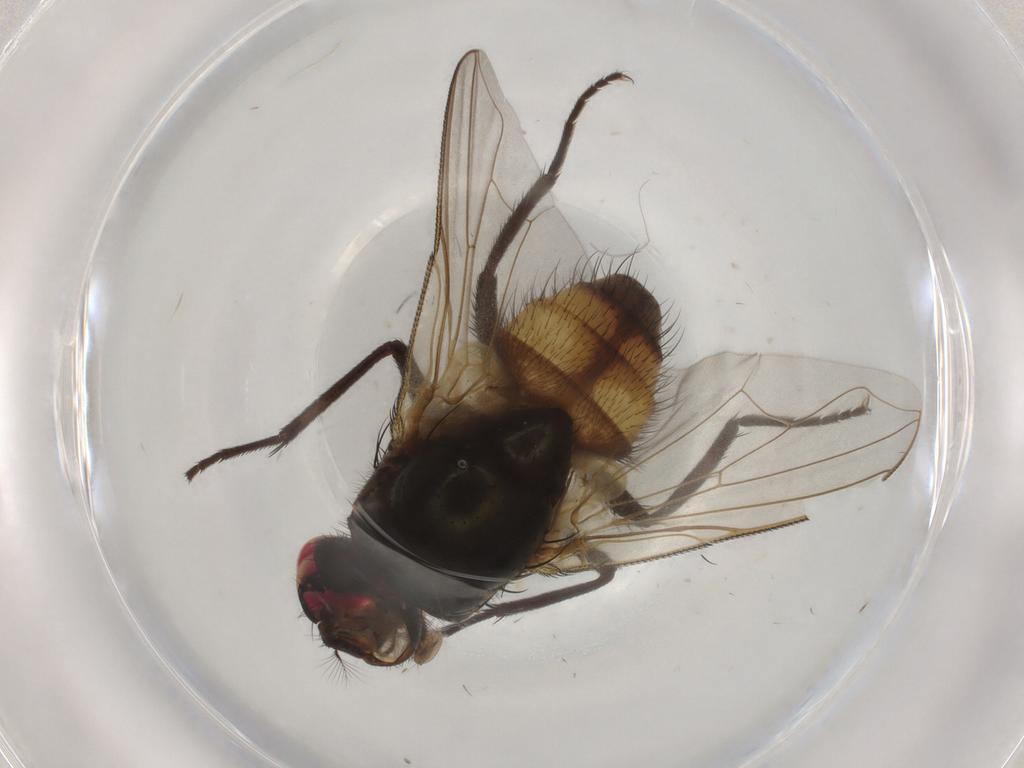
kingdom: Animalia
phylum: Arthropoda
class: Insecta
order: Diptera
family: Muscidae
